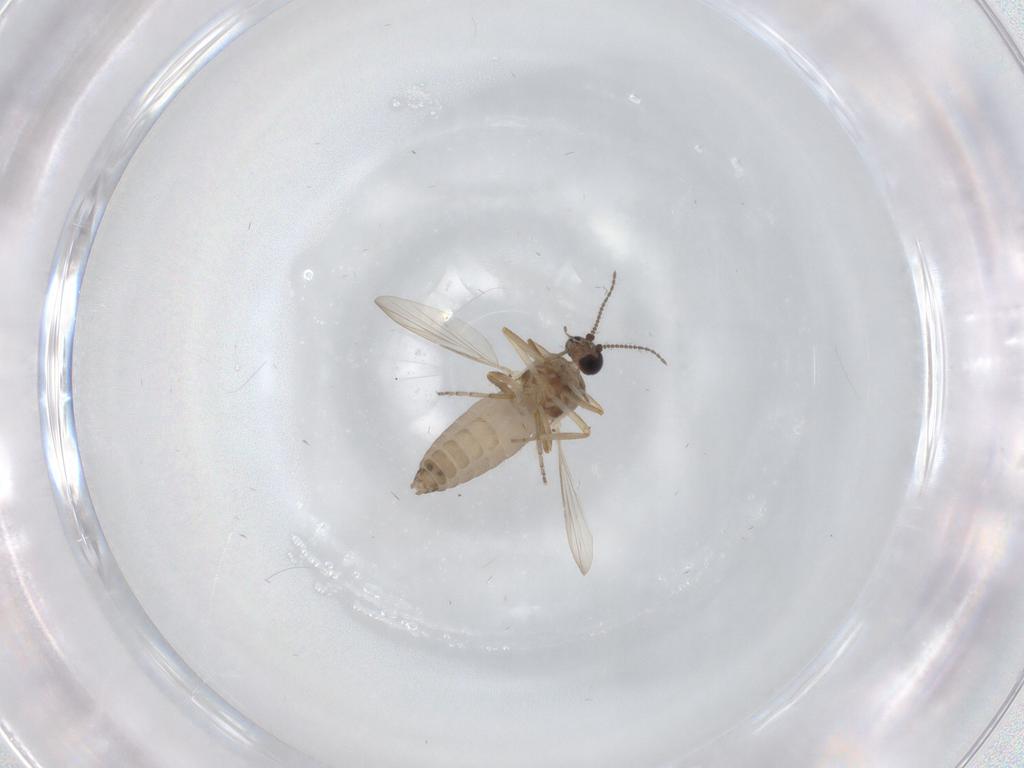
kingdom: Animalia
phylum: Arthropoda
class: Insecta
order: Diptera
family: Ceratopogonidae
